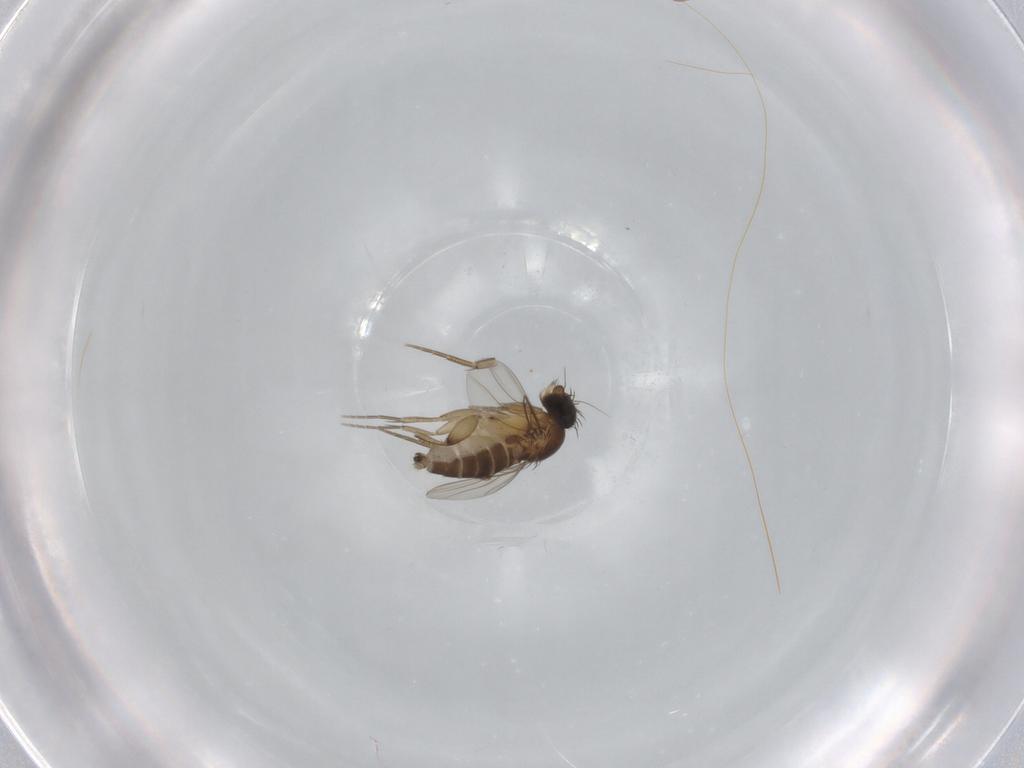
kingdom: Animalia
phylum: Arthropoda
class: Insecta
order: Diptera
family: Phoridae
